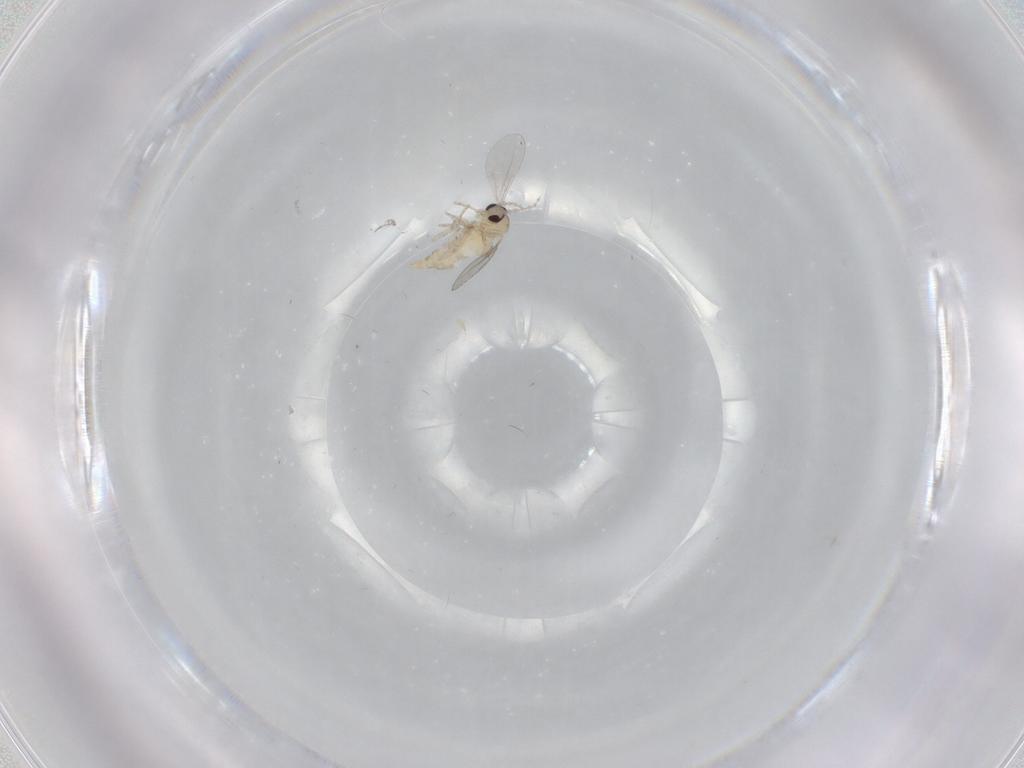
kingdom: Animalia
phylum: Arthropoda
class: Insecta
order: Diptera
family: Cecidomyiidae
